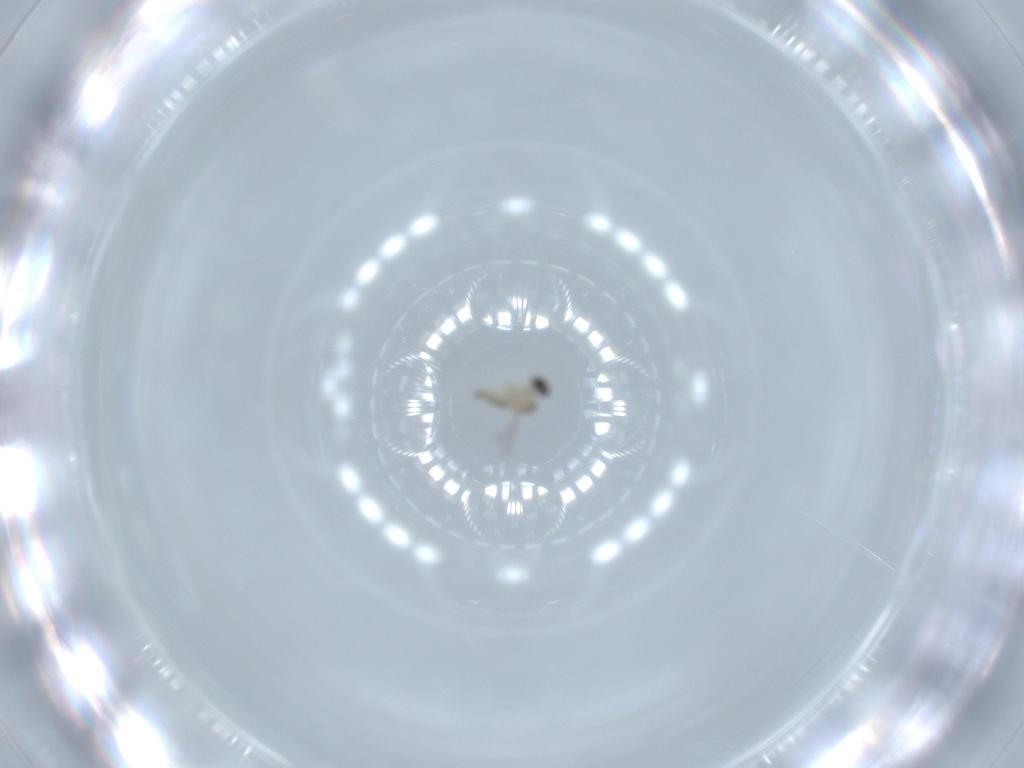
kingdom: Animalia
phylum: Arthropoda
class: Insecta
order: Diptera
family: Cecidomyiidae
